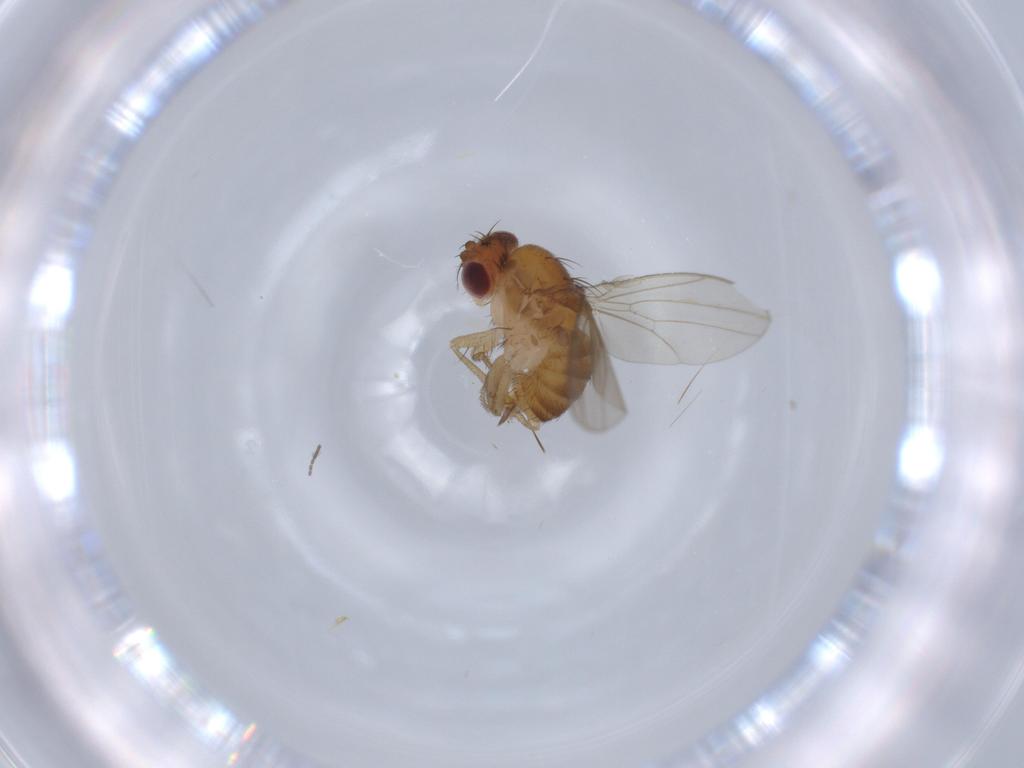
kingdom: Animalia
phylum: Arthropoda
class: Insecta
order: Diptera
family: Drosophilidae
